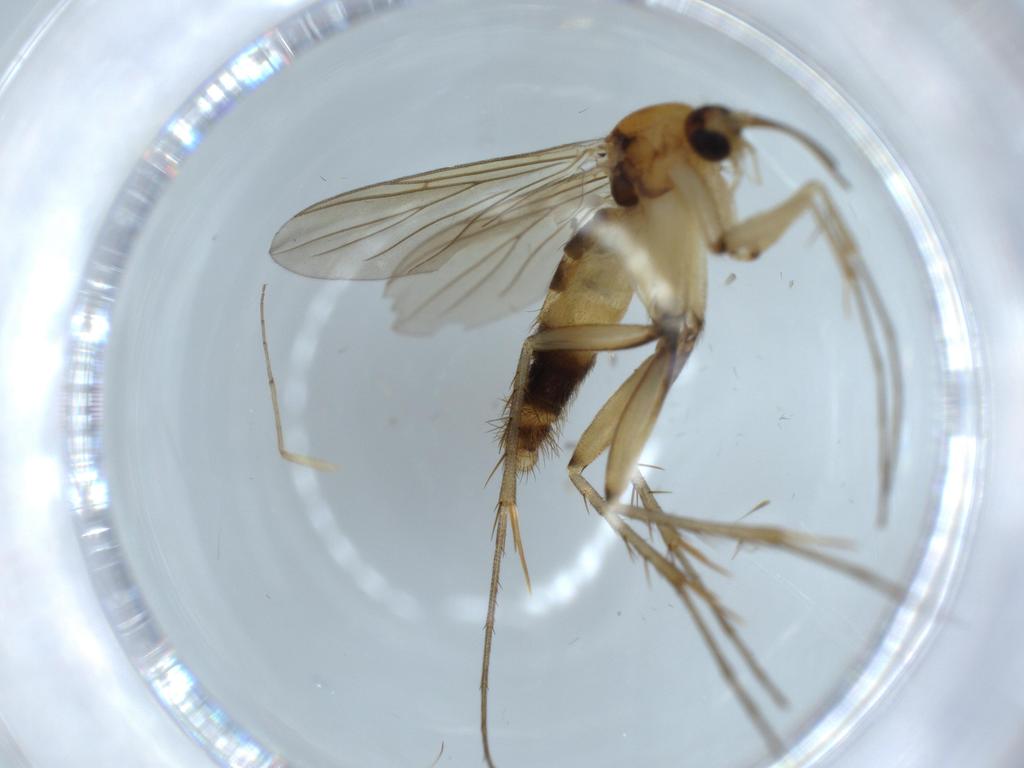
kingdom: Animalia
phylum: Arthropoda
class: Insecta
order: Diptera
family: Mycetophilidae
